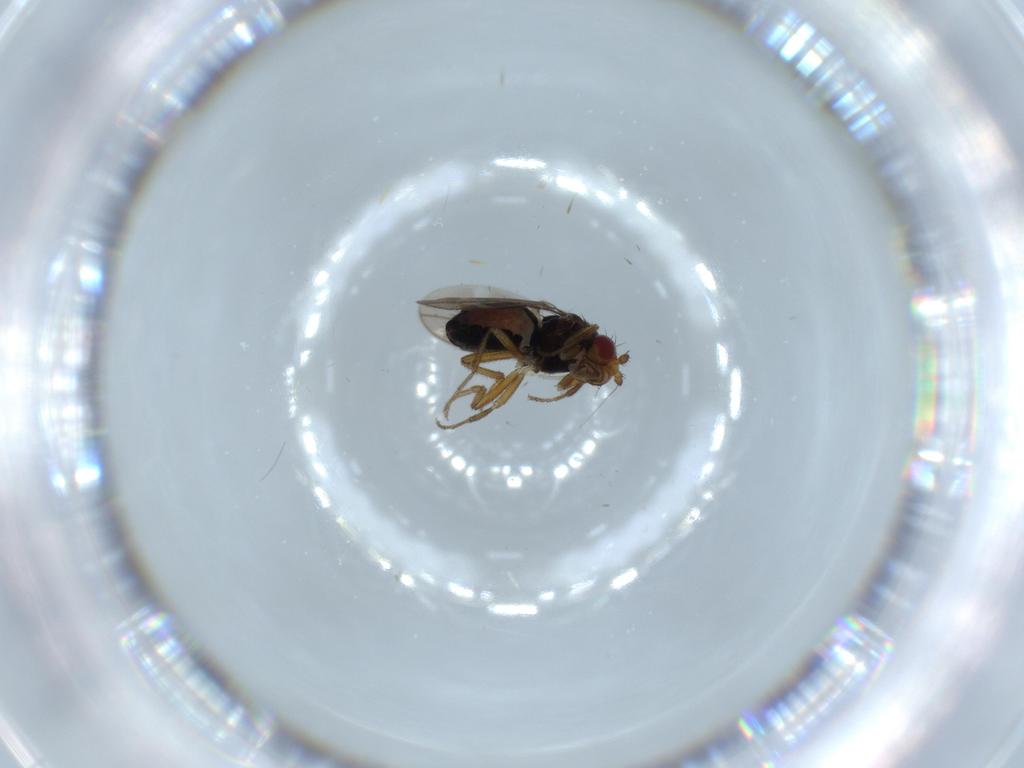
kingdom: Animalia
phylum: Arthropoda
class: Insecta
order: Diptera
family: Sphaeroceridae
